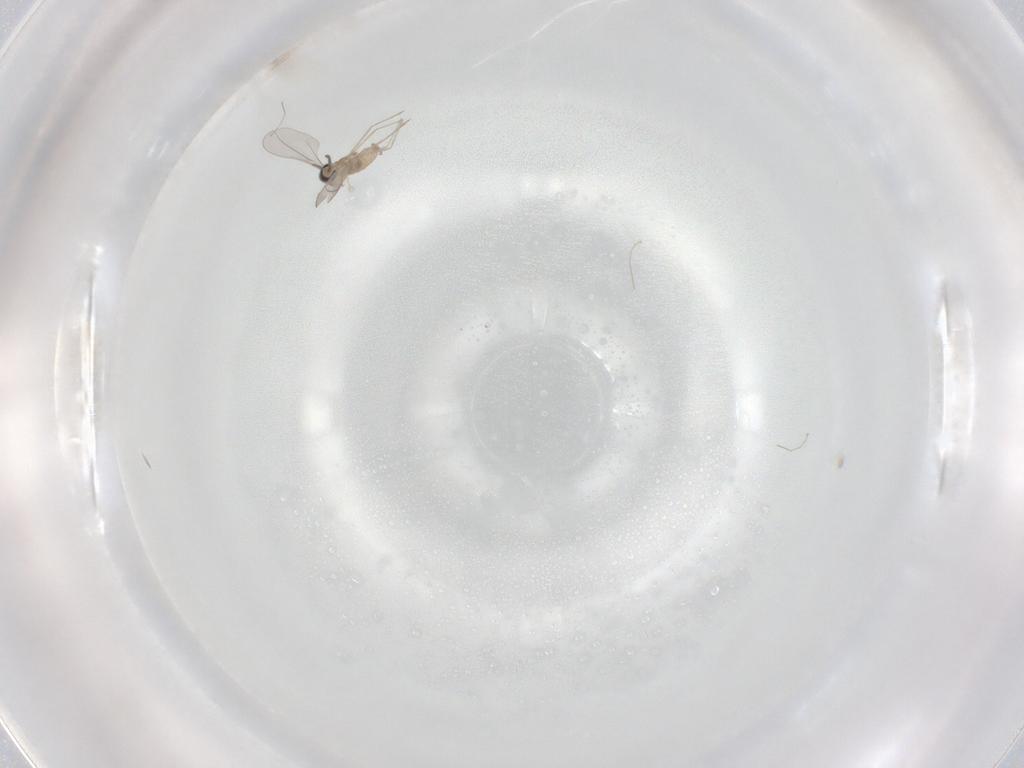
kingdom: Animalia
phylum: Arthropoda
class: Insecta
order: Diptera
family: Cecidomyiidae
